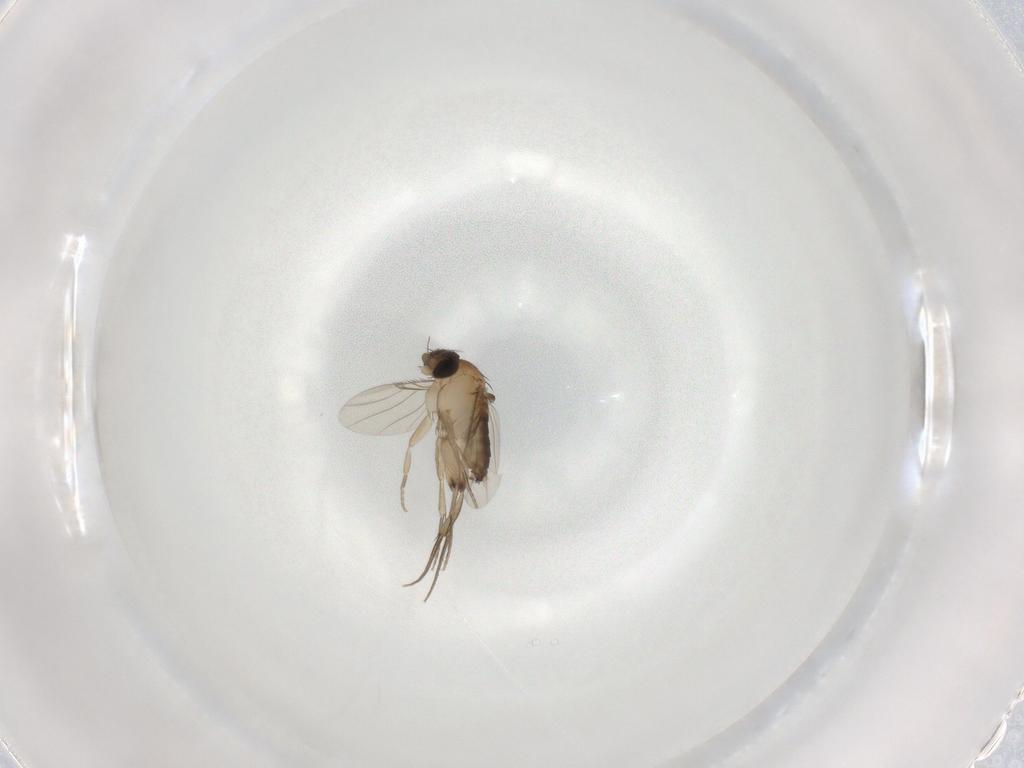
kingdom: Animalia
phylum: Arthropoda
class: Insecta
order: Diptera
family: Phoridae
